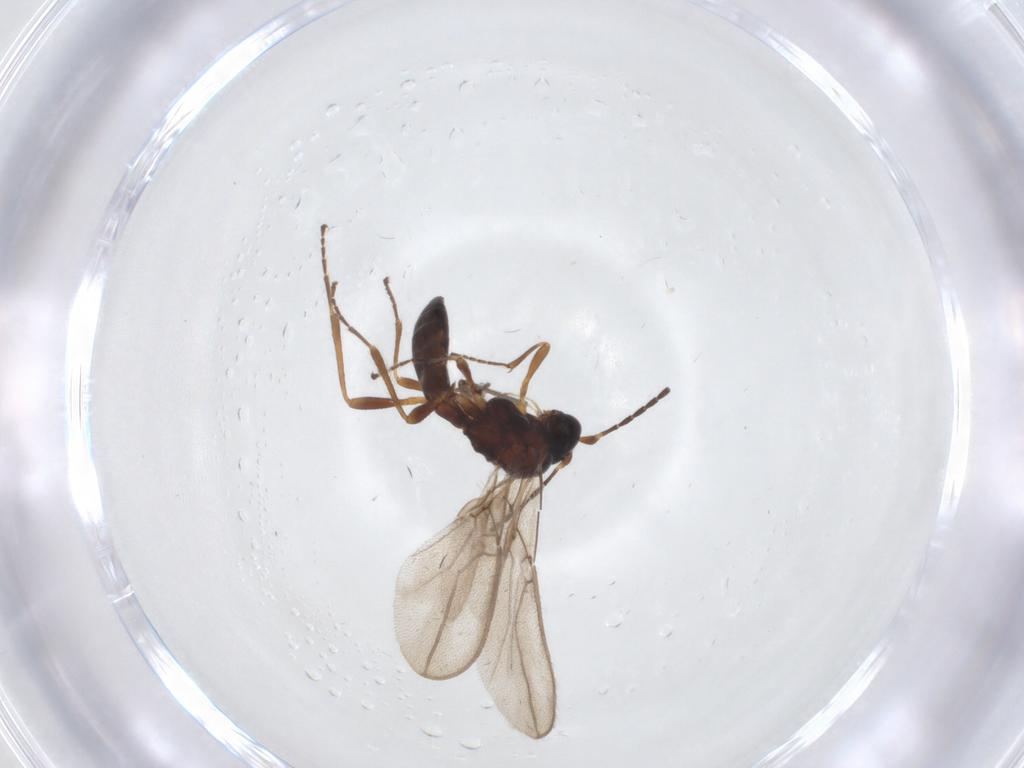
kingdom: Animalia
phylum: Arthropoda
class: Insecta
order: Hymenoptera
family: Braconidae
